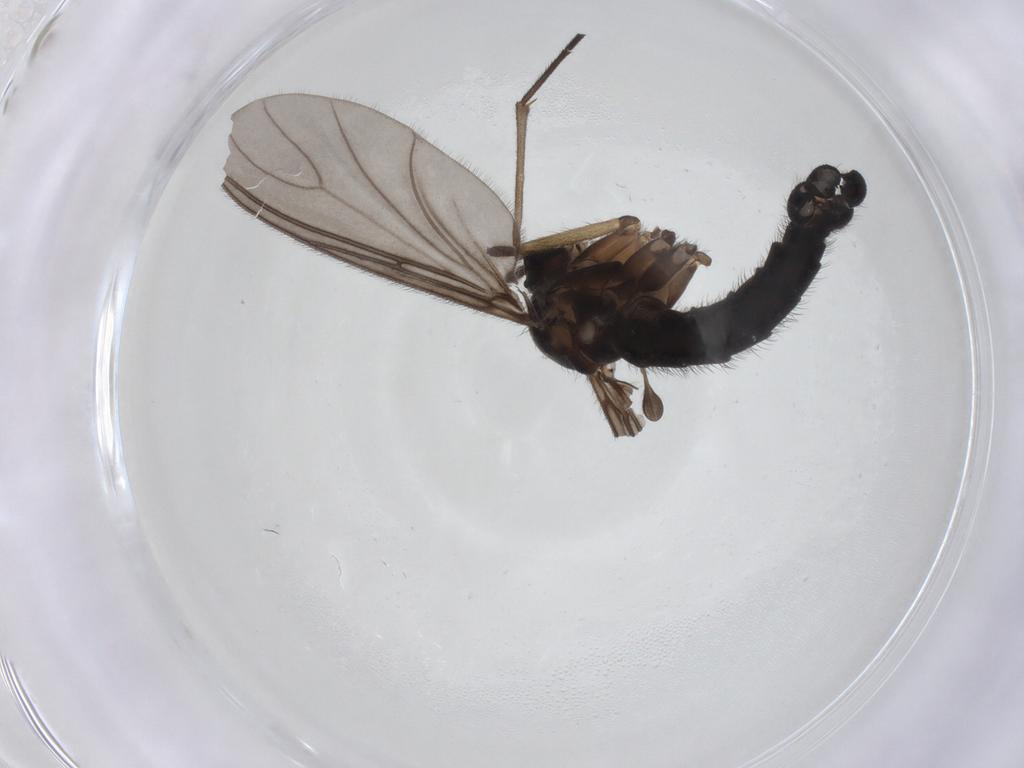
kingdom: Animalia
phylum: Arthropoda
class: Insecta
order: Diptera
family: Sciaridae
